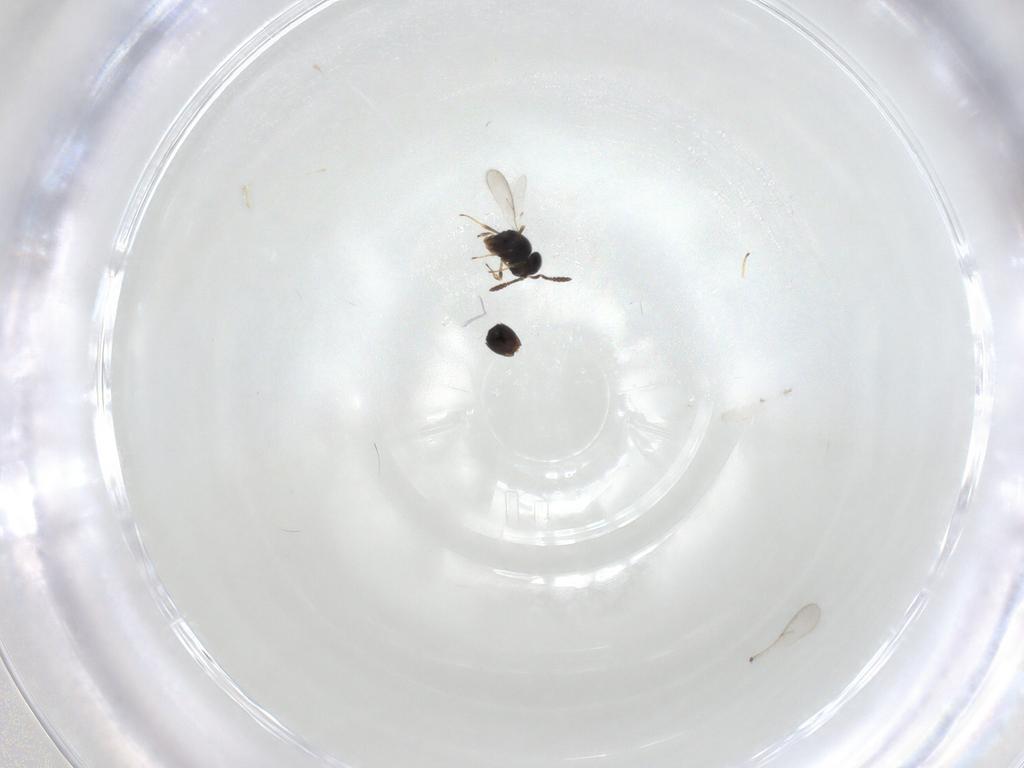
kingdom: Animalia
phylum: Arthropoda
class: Insecta
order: Hymenoptera
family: Scelionidae
